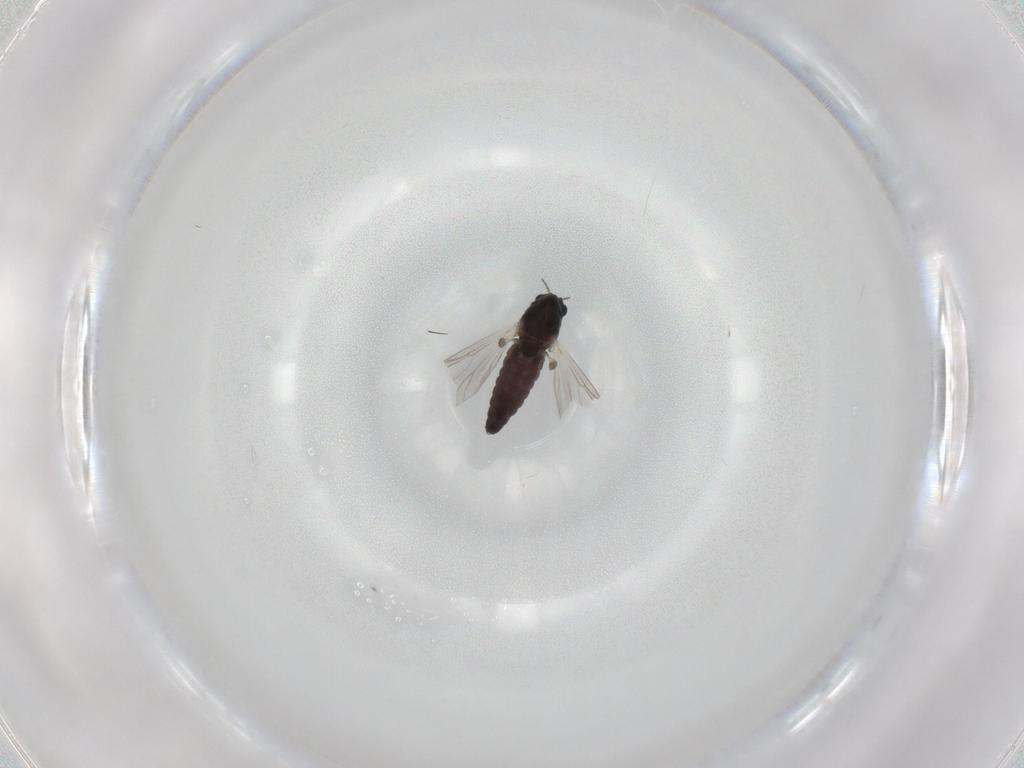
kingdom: Animalia
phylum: Arthropoda
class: Insecta
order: Diptera
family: Chironomidae
